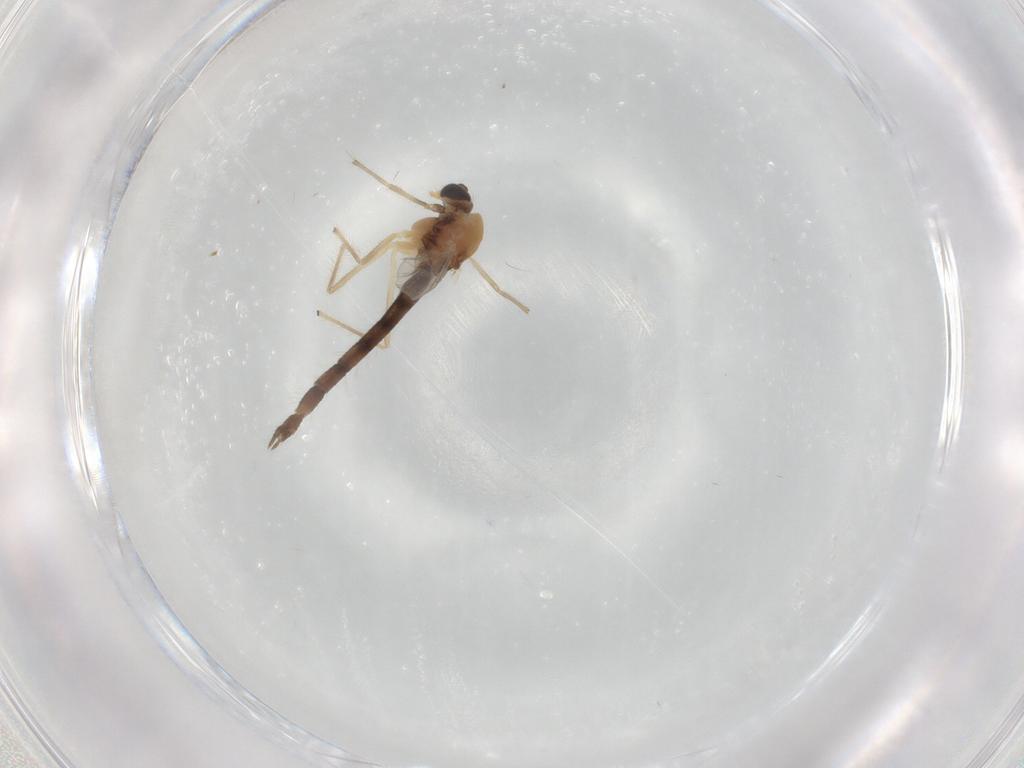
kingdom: Animalia
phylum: Arthropoda
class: Insecta
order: Diptera
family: Chironomidae
